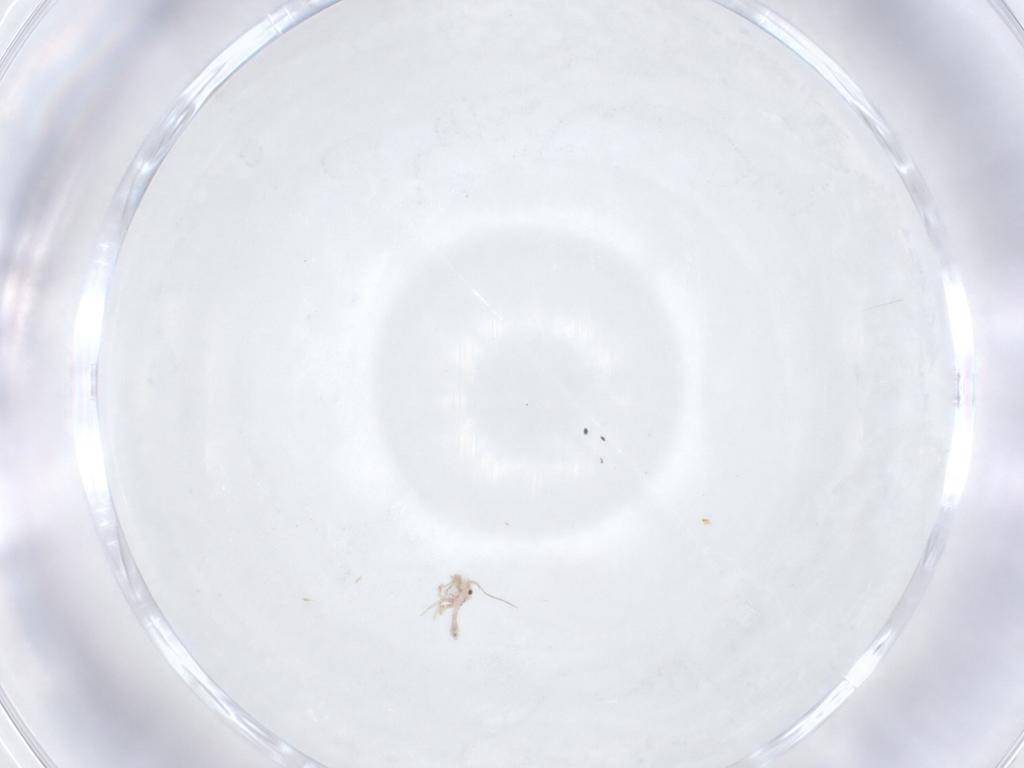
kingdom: Animalia
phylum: Arthropoda
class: Insecta
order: Psocodea
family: Lepidopsocidae
